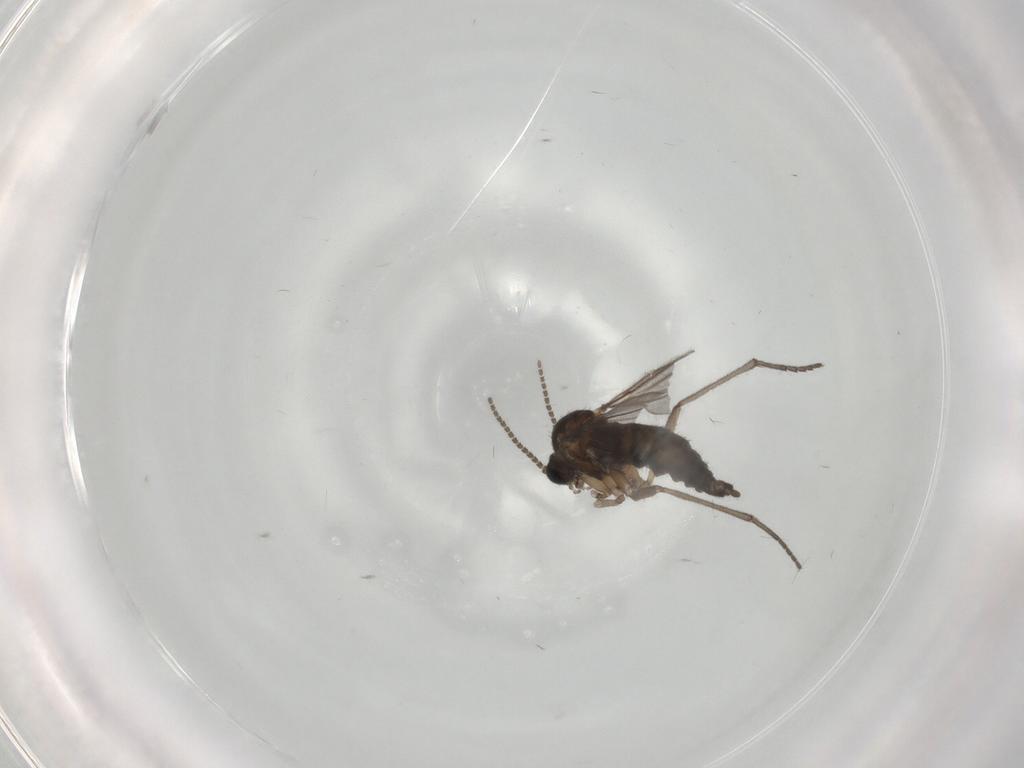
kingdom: Animalia
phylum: Arthropoda
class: Insecta
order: Diptera
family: Sciaridae
